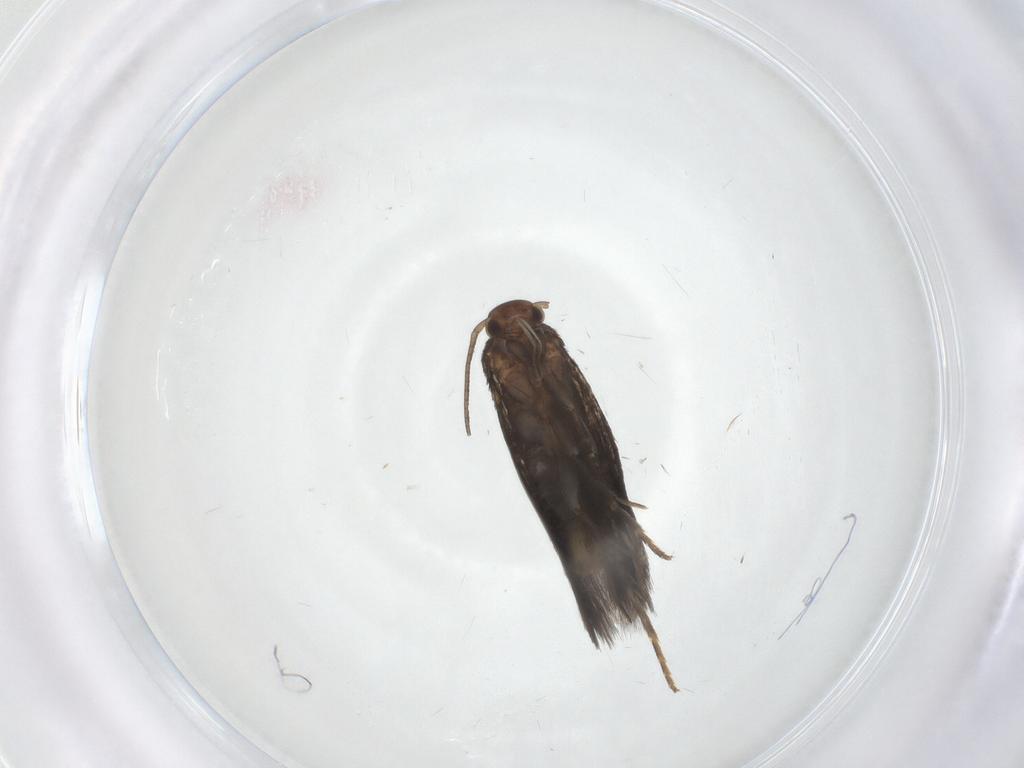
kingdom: Animalia
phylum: Arthropoda
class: Insecta
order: Lepidoptera
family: Elachistidae
